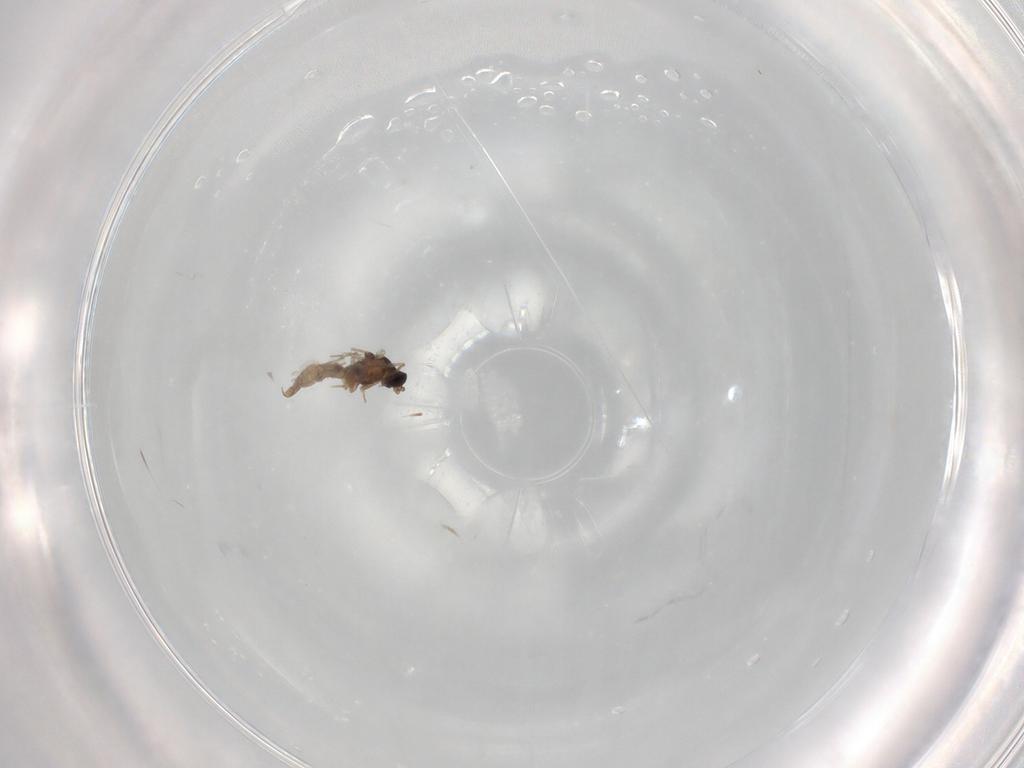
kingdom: Animalia
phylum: Arthropoda
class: Insecta
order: Diptera
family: Cecidomyiidae
